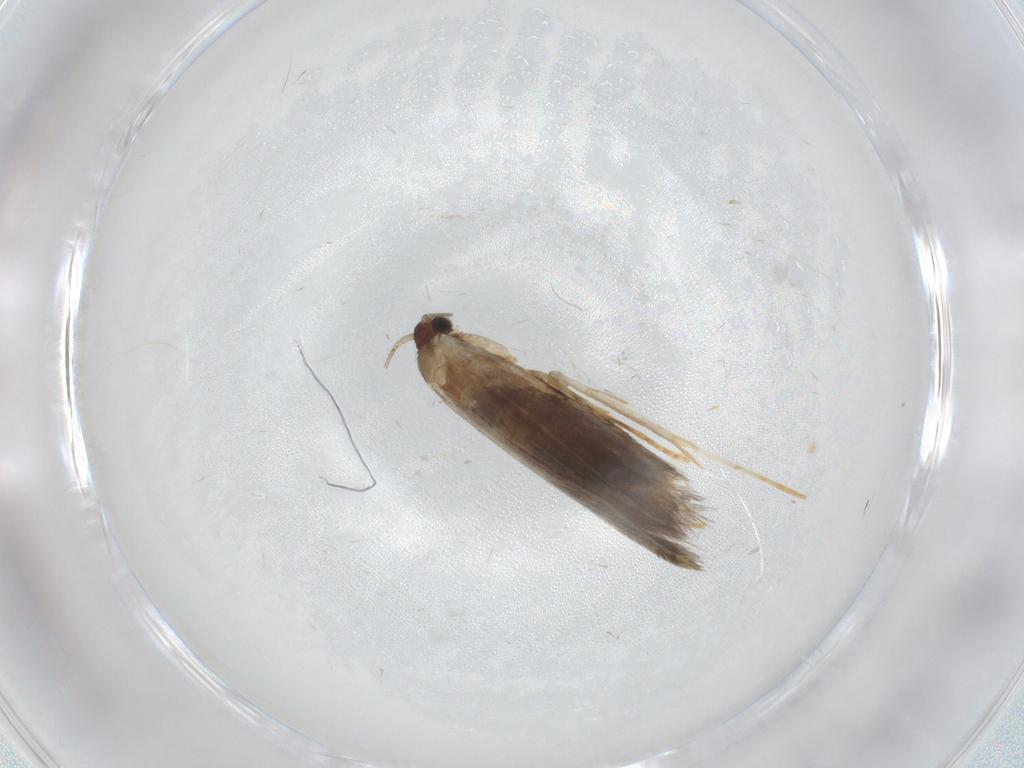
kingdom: Animalia
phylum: Arthropoda
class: Insecta
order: Lepidoptera
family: Tineidae
